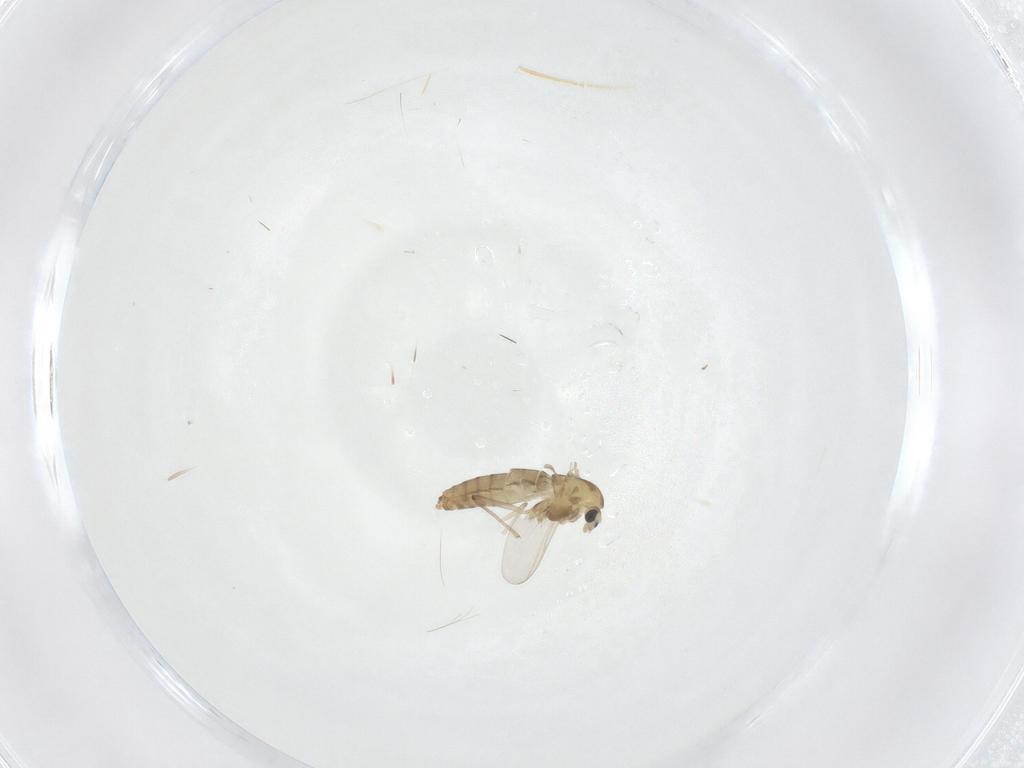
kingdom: Animalia
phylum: Arthropoda
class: Insecta
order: Diptera
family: Chironomidae
